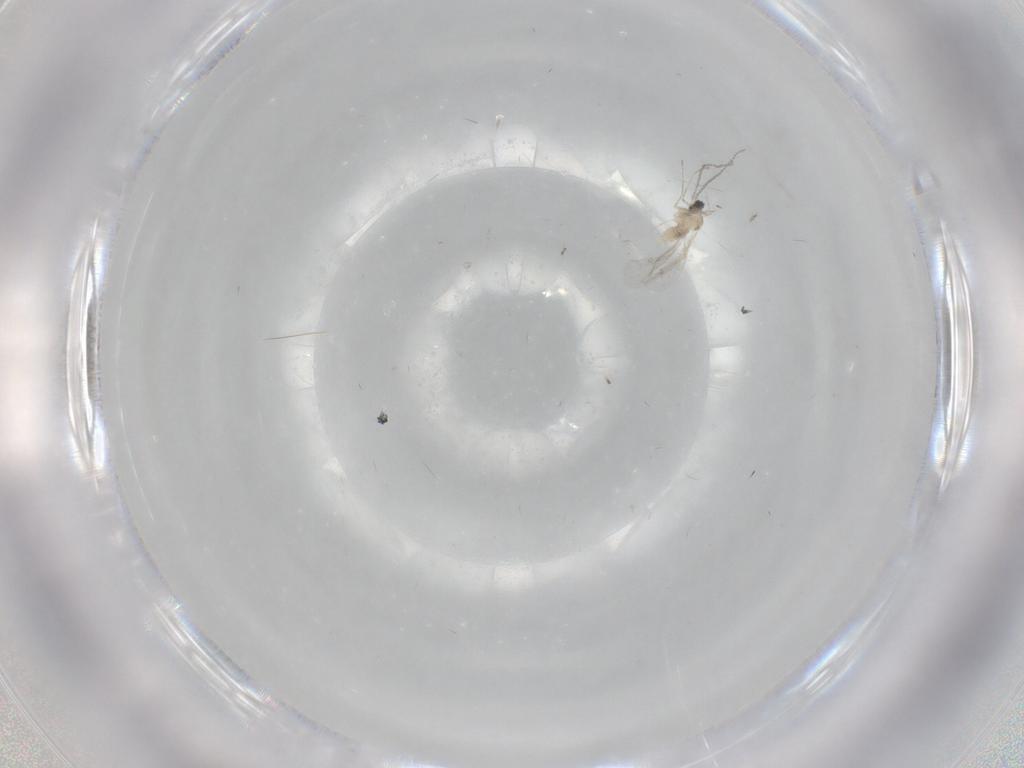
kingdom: Animalia
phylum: Arthropoda
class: Insecta
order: Diptera
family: Cecidomyiidae
